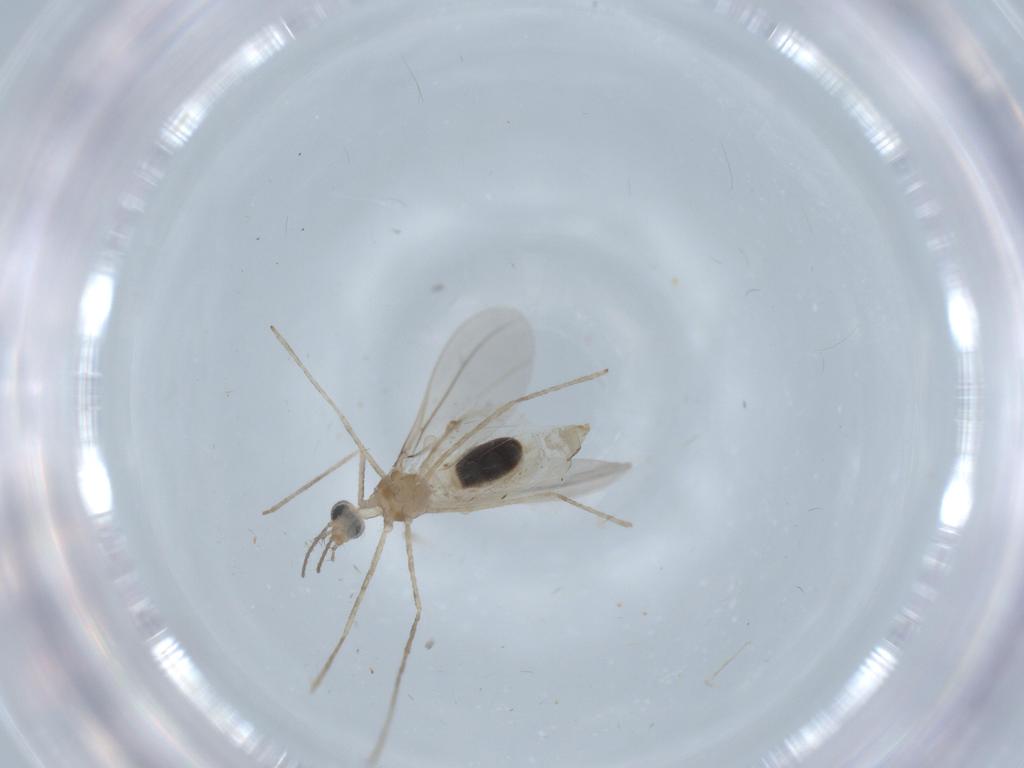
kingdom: Animalia
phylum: Arthropoda
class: Insecta
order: Diptera
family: Chironomidae
